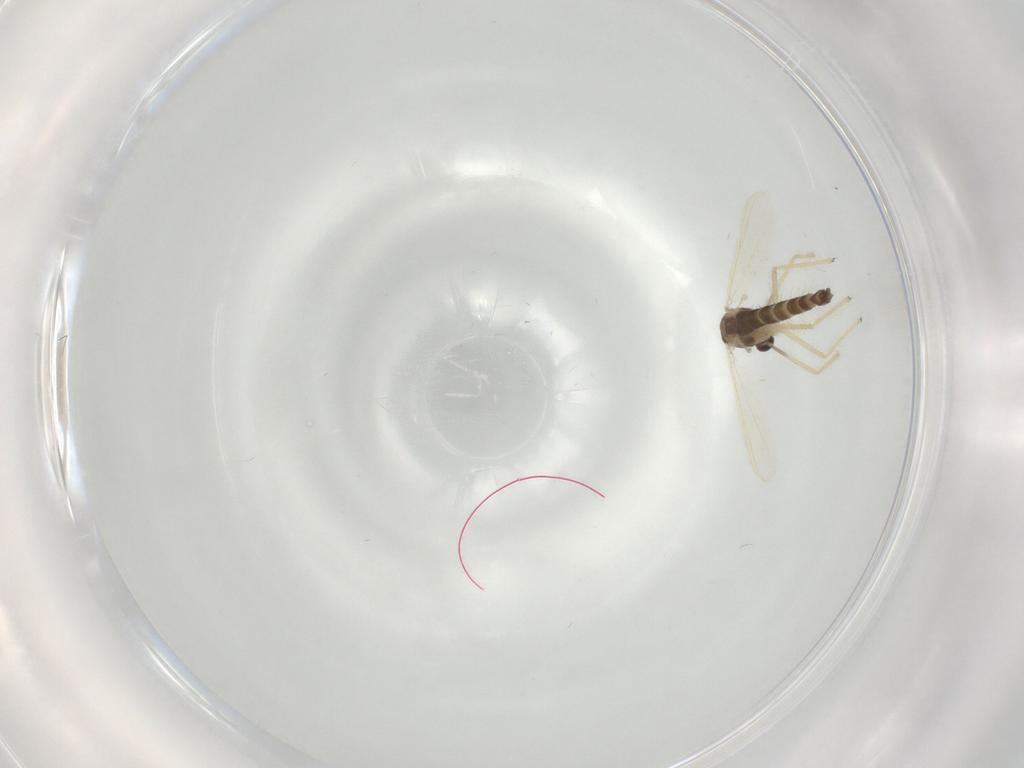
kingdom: Animalia
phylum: Arthropoda
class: Insecta
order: Diptera
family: Chironomidae
